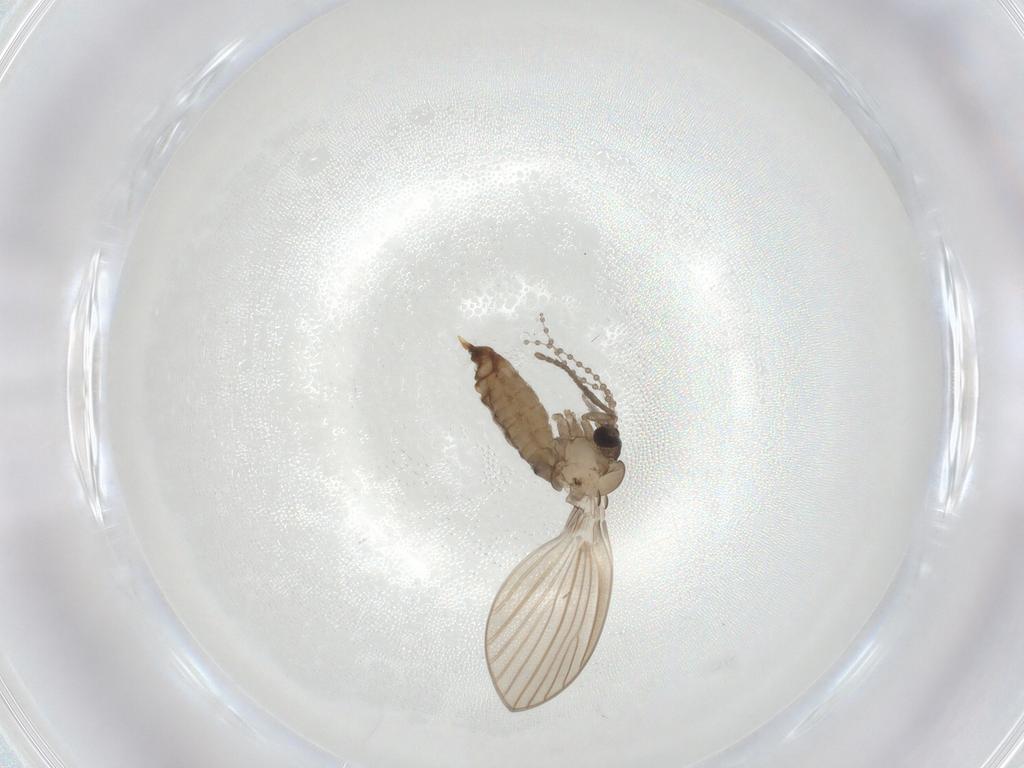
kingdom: Animalia
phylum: Arthropoda
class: Insecta
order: Diptera
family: Psychodidae
